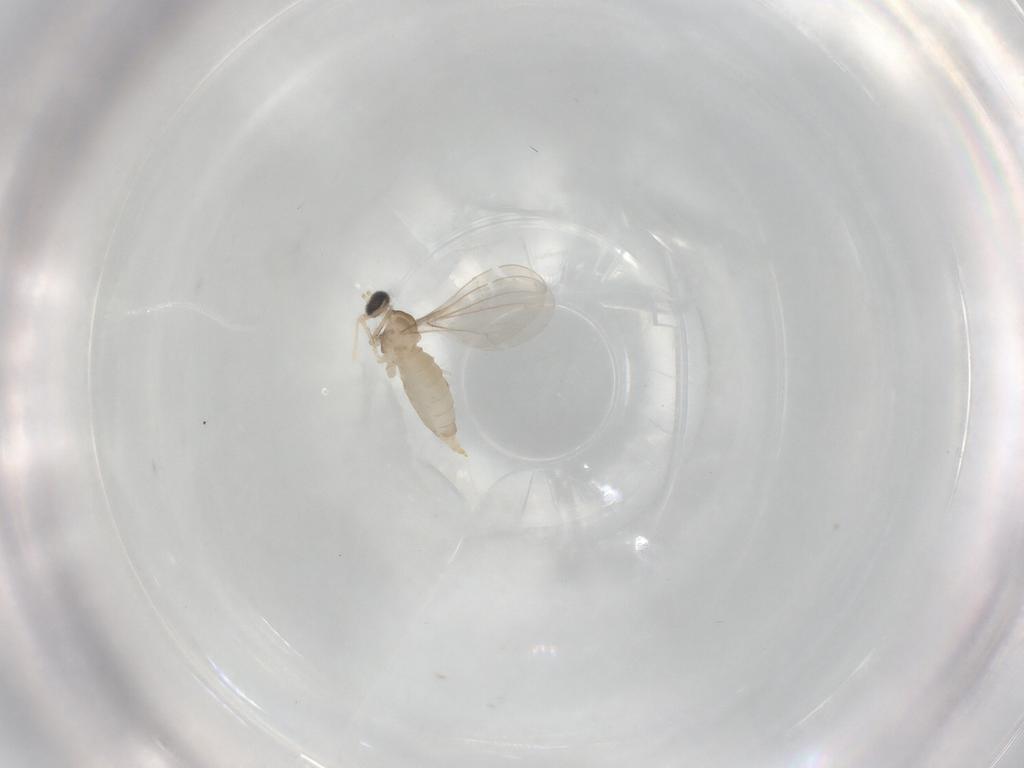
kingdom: Animalia
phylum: Arthropoda
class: Insecta
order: Diptera
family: Cecidomyiidae
